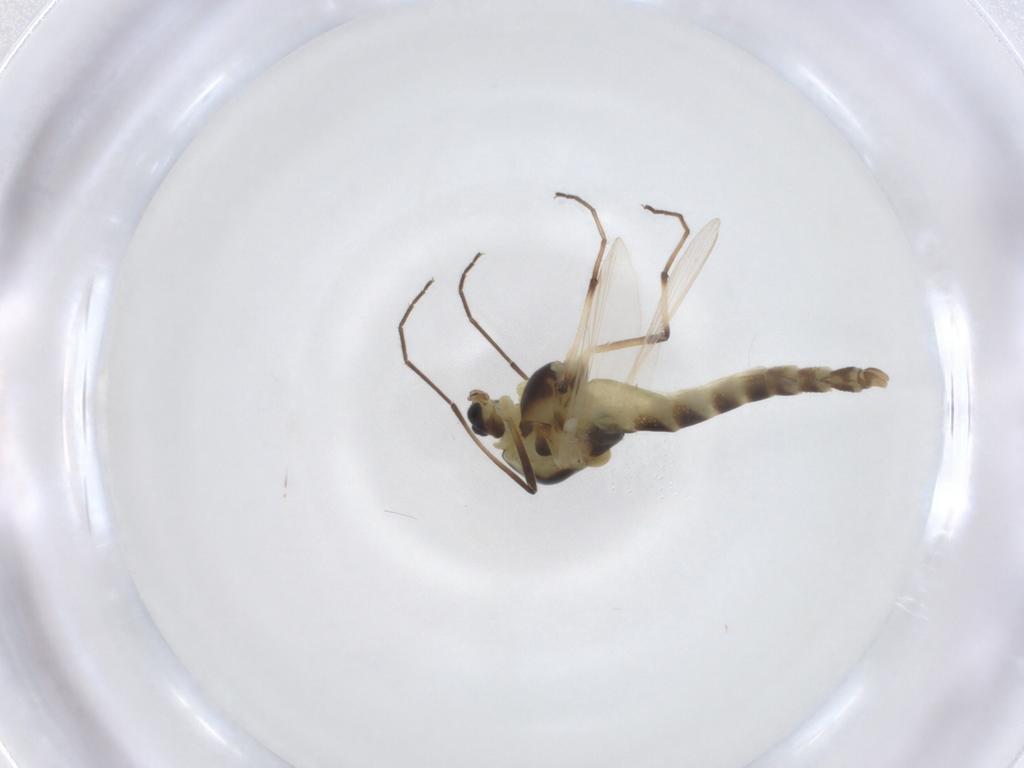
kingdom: Animalia
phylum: Arthropoda
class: Insecta
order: Diptera
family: Chironomidae
